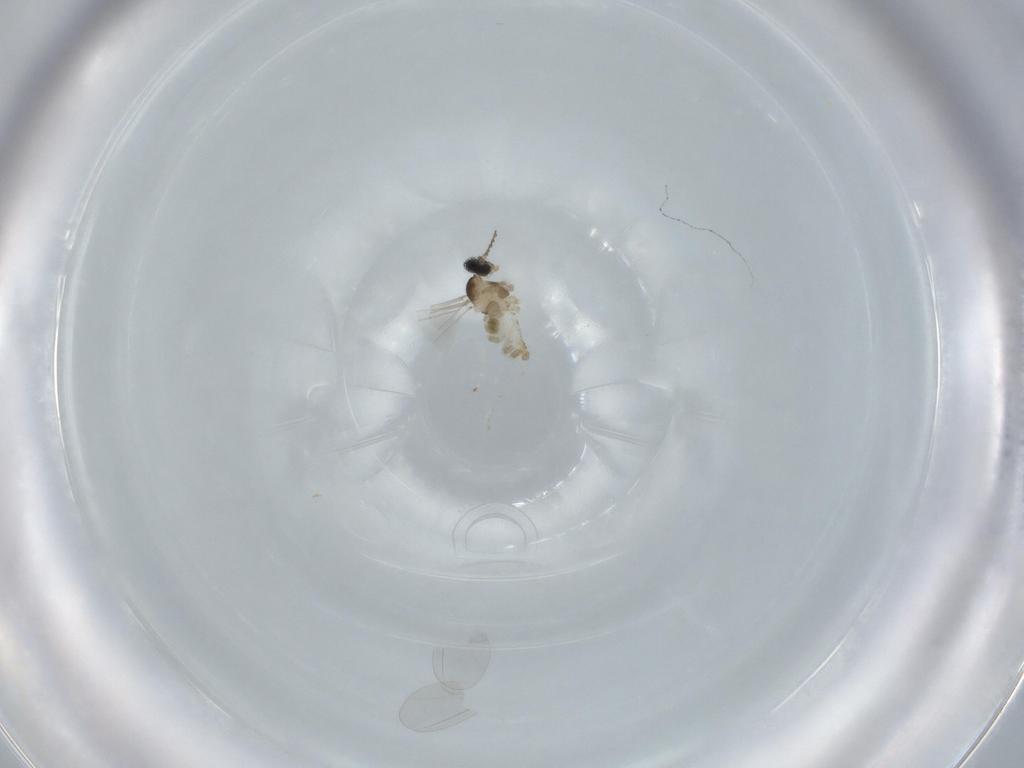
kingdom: Animalia
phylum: Arthropoda
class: Insecta
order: Diptera
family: Cecidomyiidae
